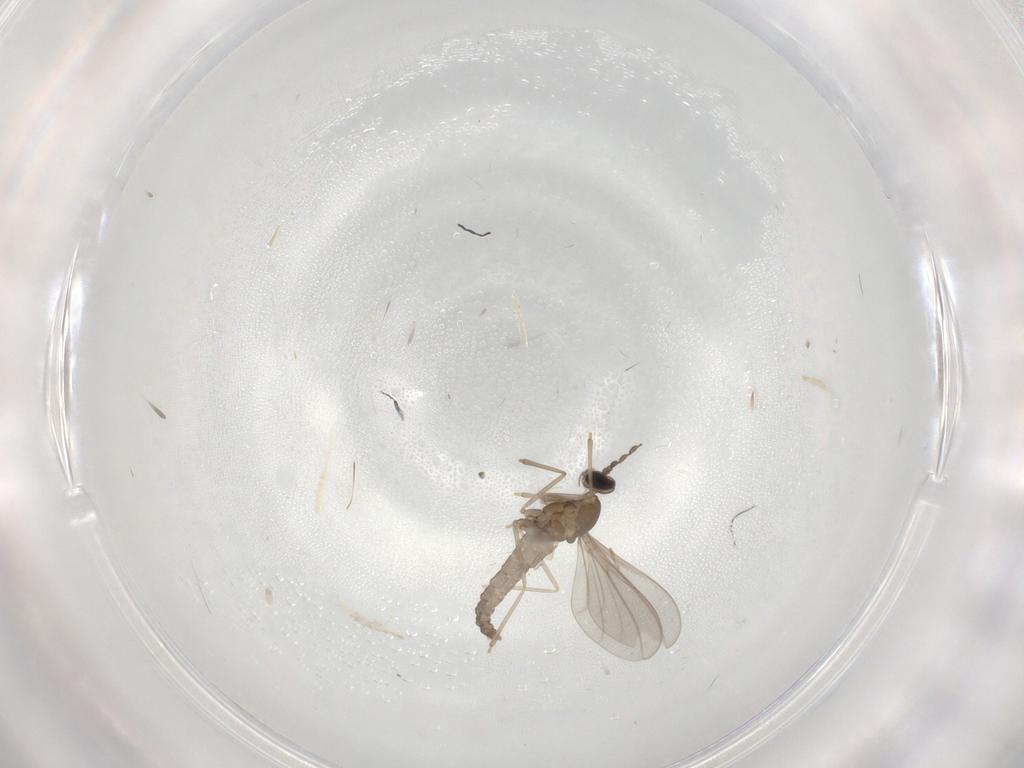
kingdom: Animalia
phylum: Arthropoda
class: Insecta
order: Diptera
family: Cecidomyiidae
